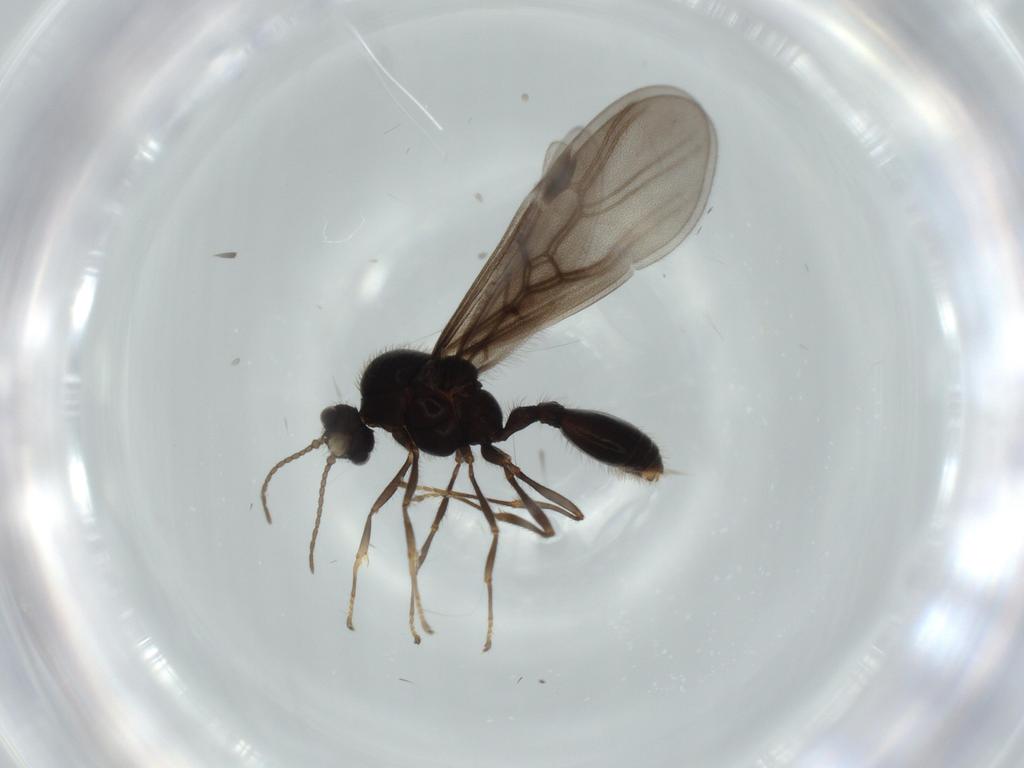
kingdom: Animalia
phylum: Arthropoda
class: Insecta
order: Hymenoptera
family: Formicidae
